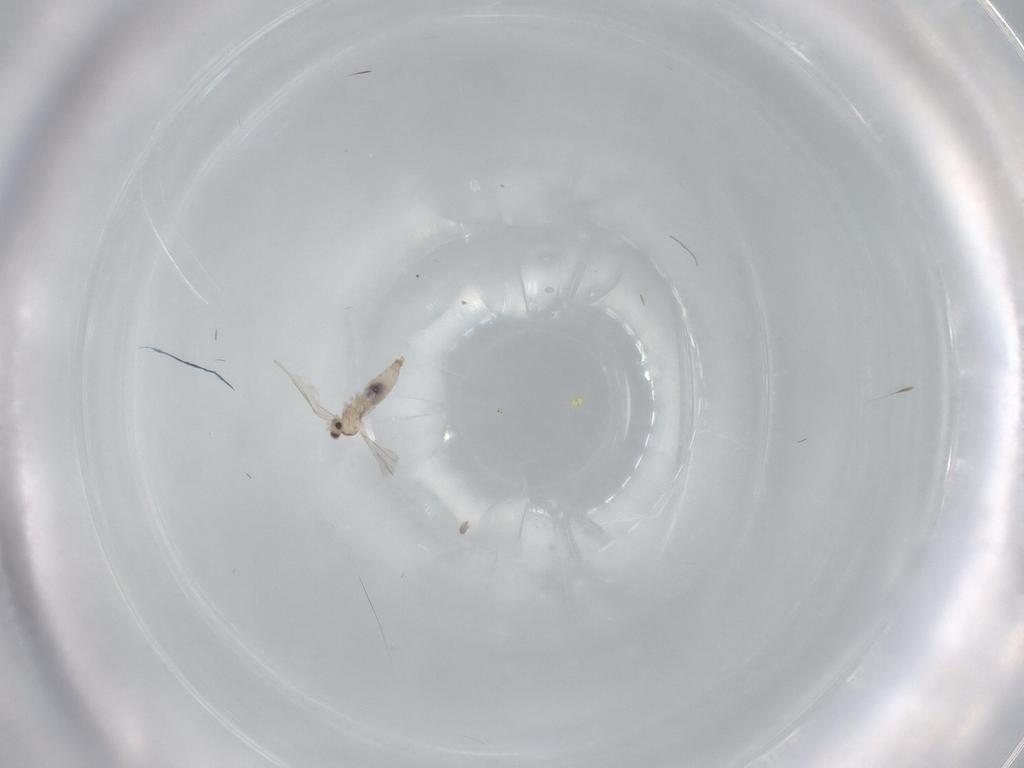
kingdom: Animalia
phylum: Arthropoda
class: Insecta
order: Diptera
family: Cecidomyiidae
